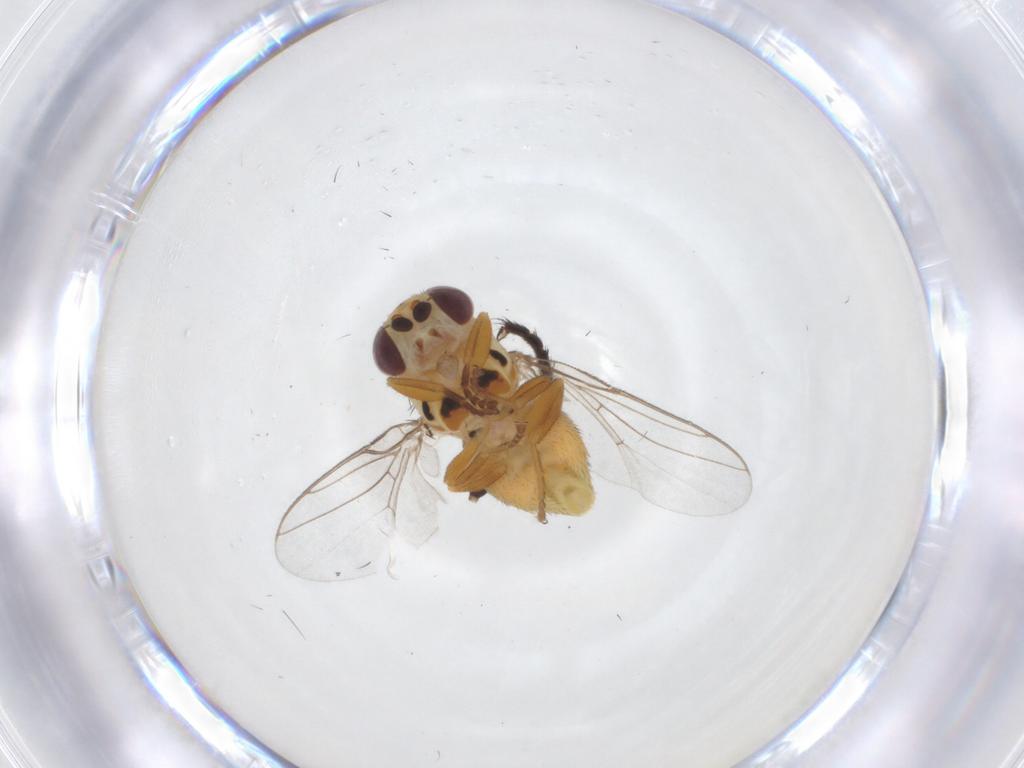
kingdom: Animalia
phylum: Arthropoda
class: Insecta
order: Diptera
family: Chloropidae
